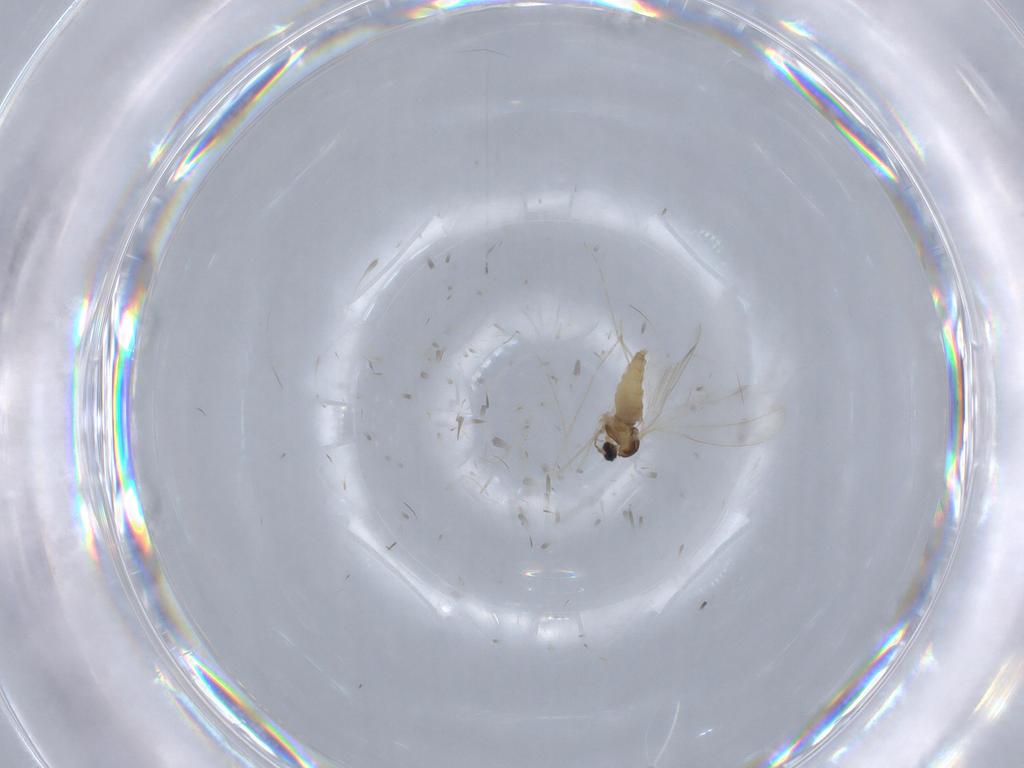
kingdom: Animalia
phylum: Arthropoda
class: Insecta
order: Diptera
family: Cecidomyiidae
